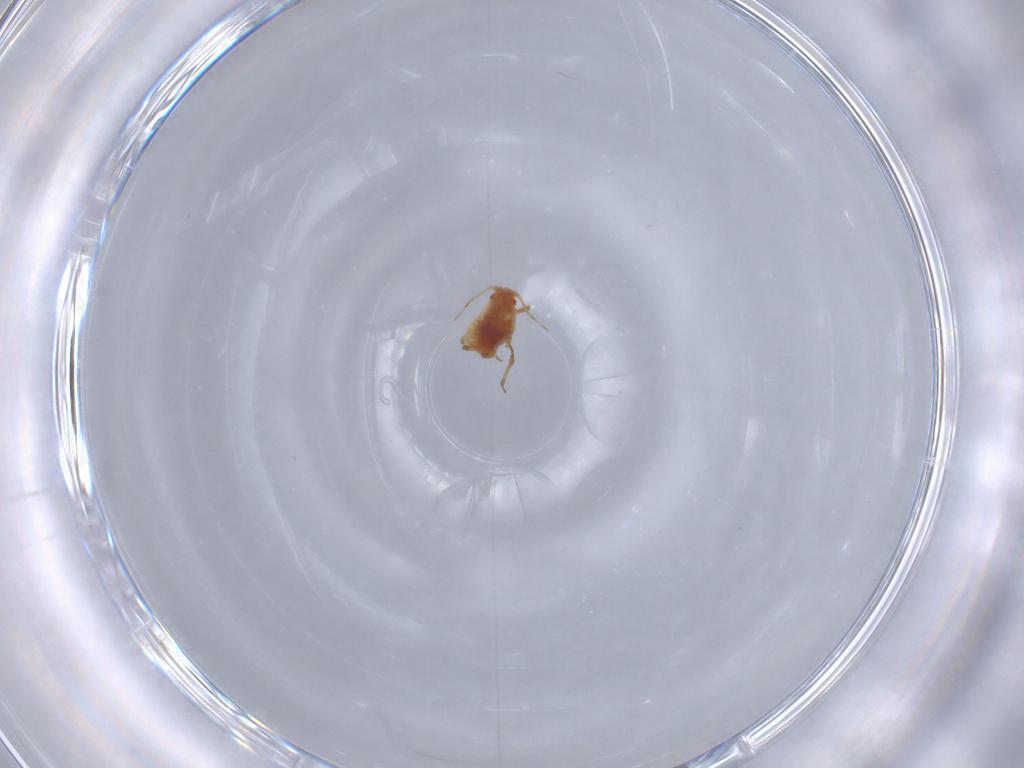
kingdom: Animalia
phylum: Arthropoda
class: Insecta
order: Hemiptera
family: Aphididae
